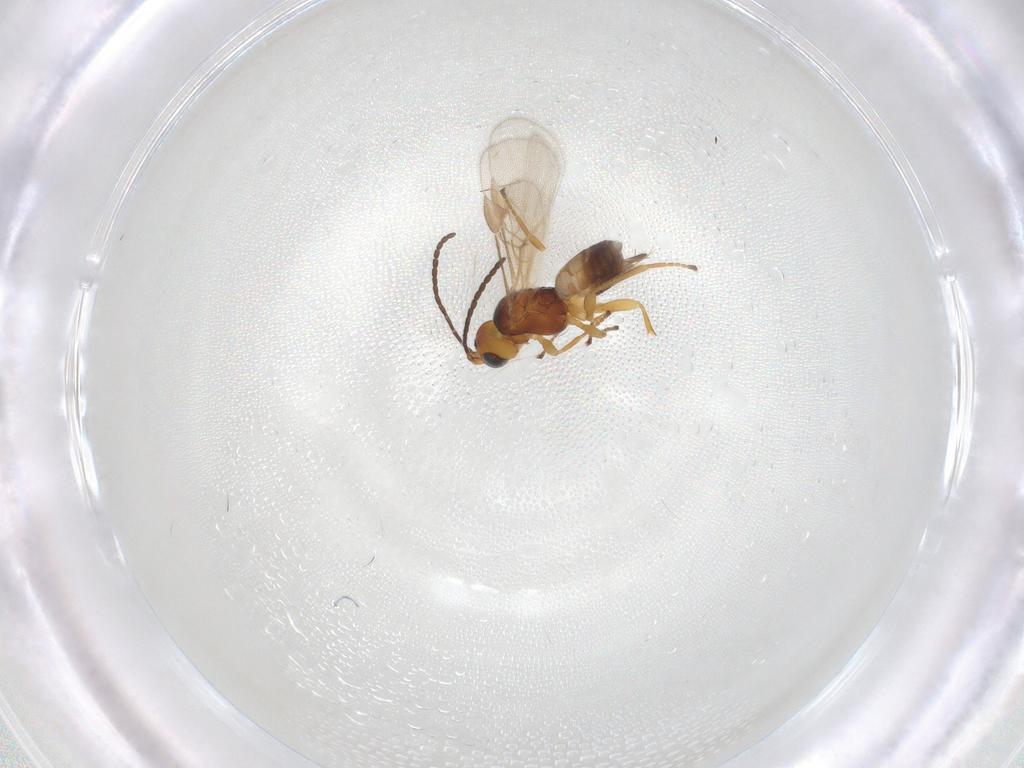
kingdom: Animalia
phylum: Arthropoda
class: Insecta
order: Hymenoptera
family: Braconidae
